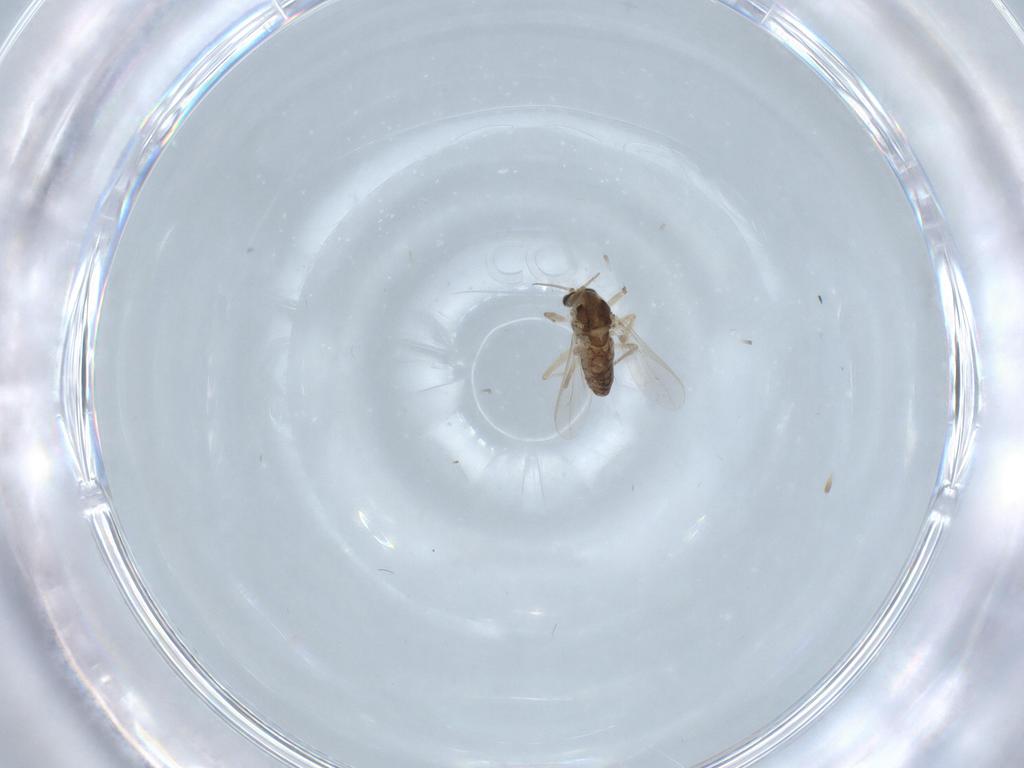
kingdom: Animalia
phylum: Arthropoda
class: Insecta
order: Diptera
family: Chironomidae
